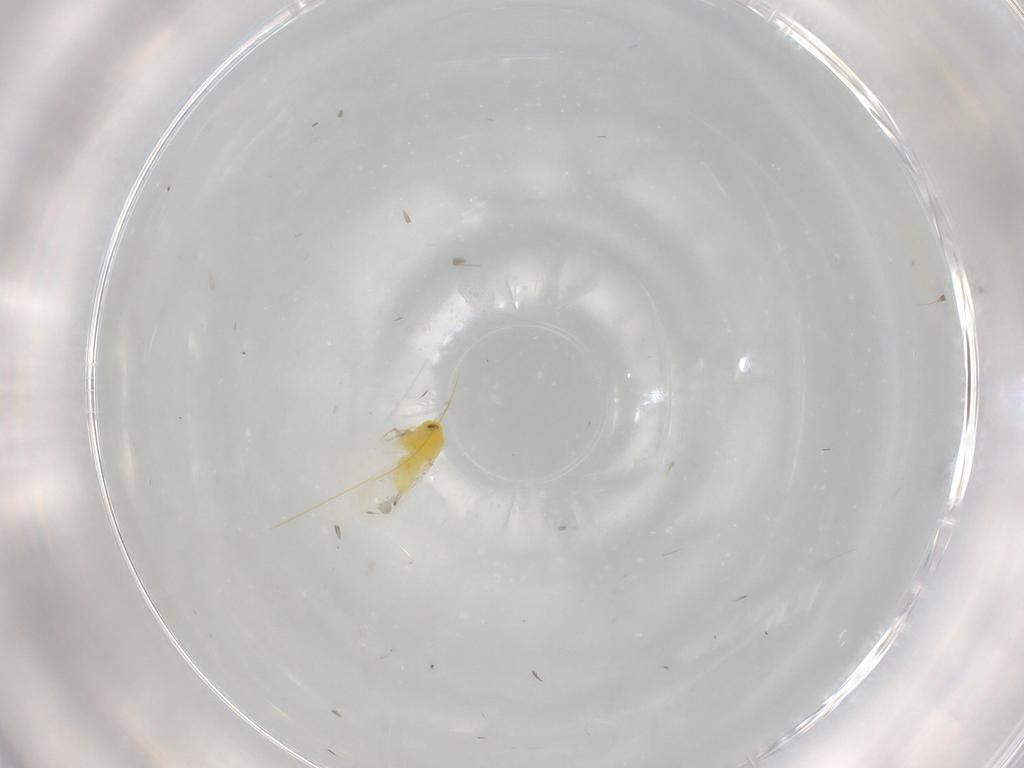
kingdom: Animalia
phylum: Arthropoda
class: Insecta
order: Hemiptera
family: Aleyrodidae
